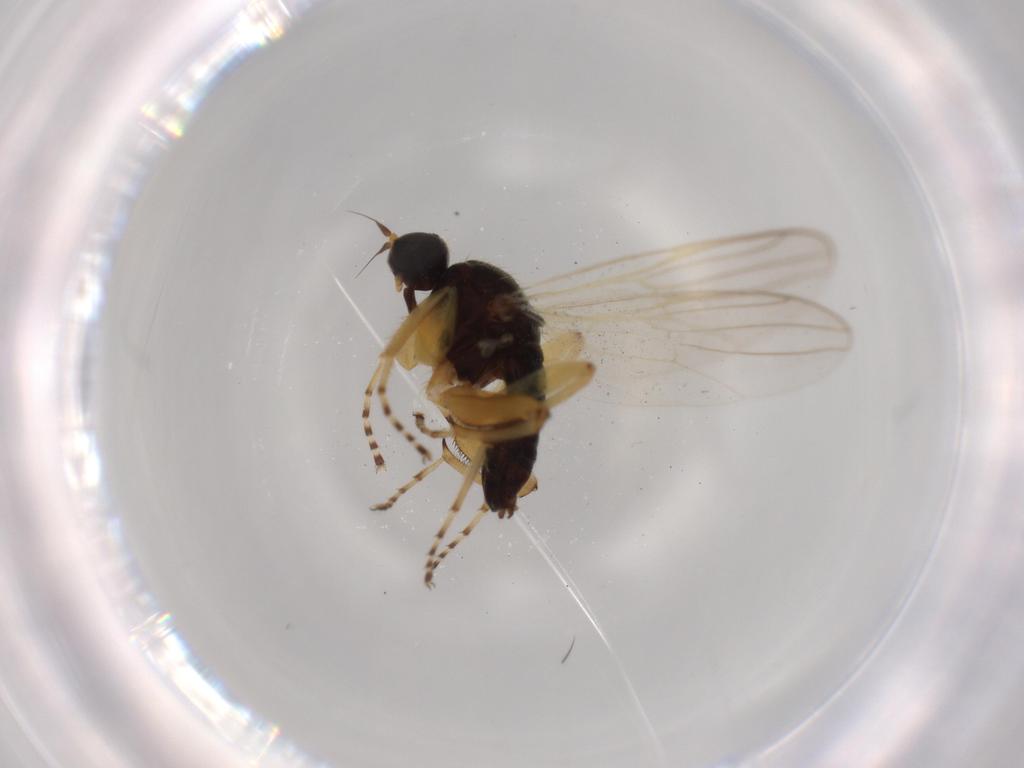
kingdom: Animalia
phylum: Arthropoda
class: Insecta
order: Diptera
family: Hybotidae
